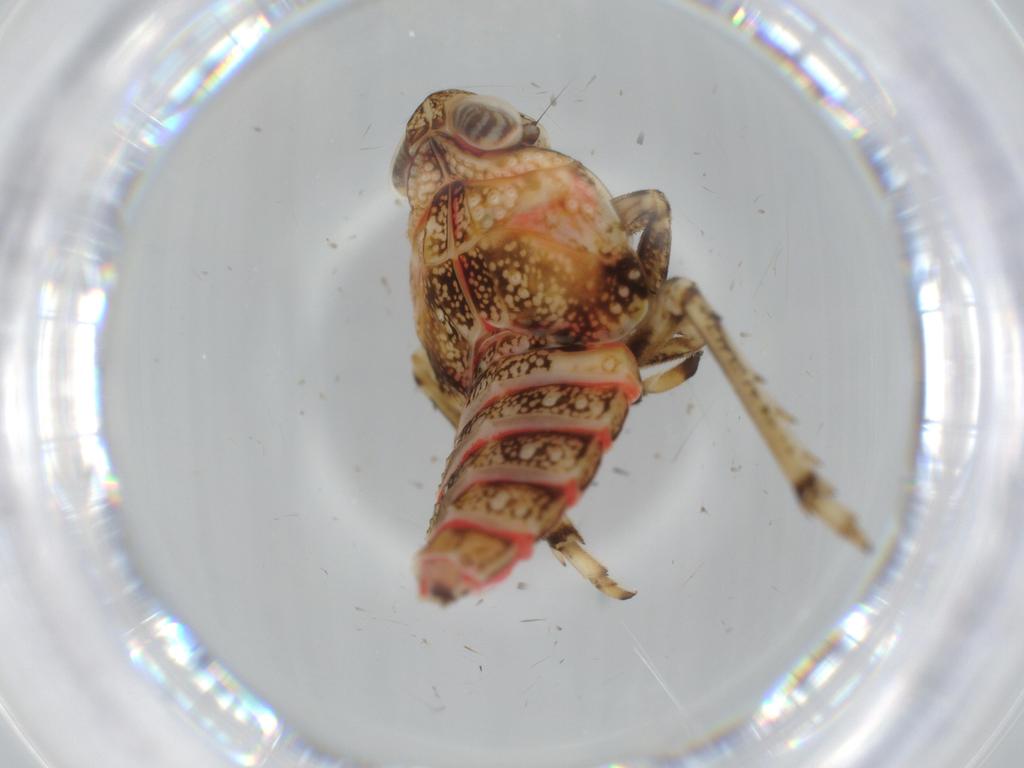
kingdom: Animalia
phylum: Arthropoda
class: Insecta
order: Hemiptera
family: Issidae
